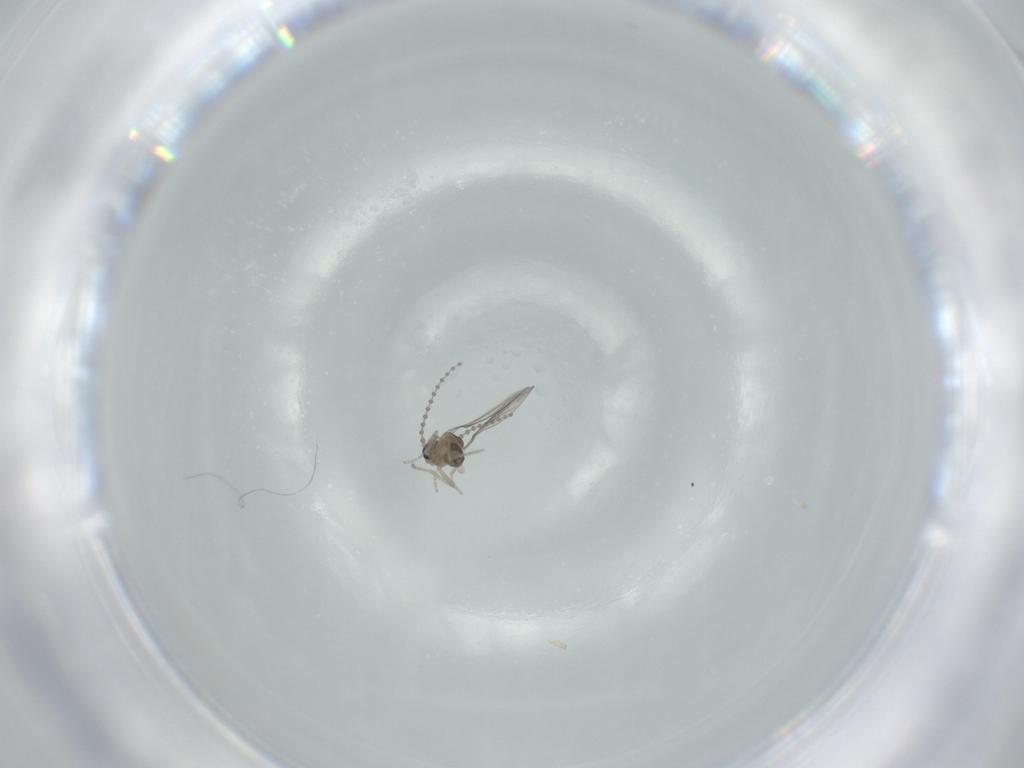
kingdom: Animalia
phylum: Arthropoda
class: Insecta
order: Diptera
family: Cecidomyiidae
